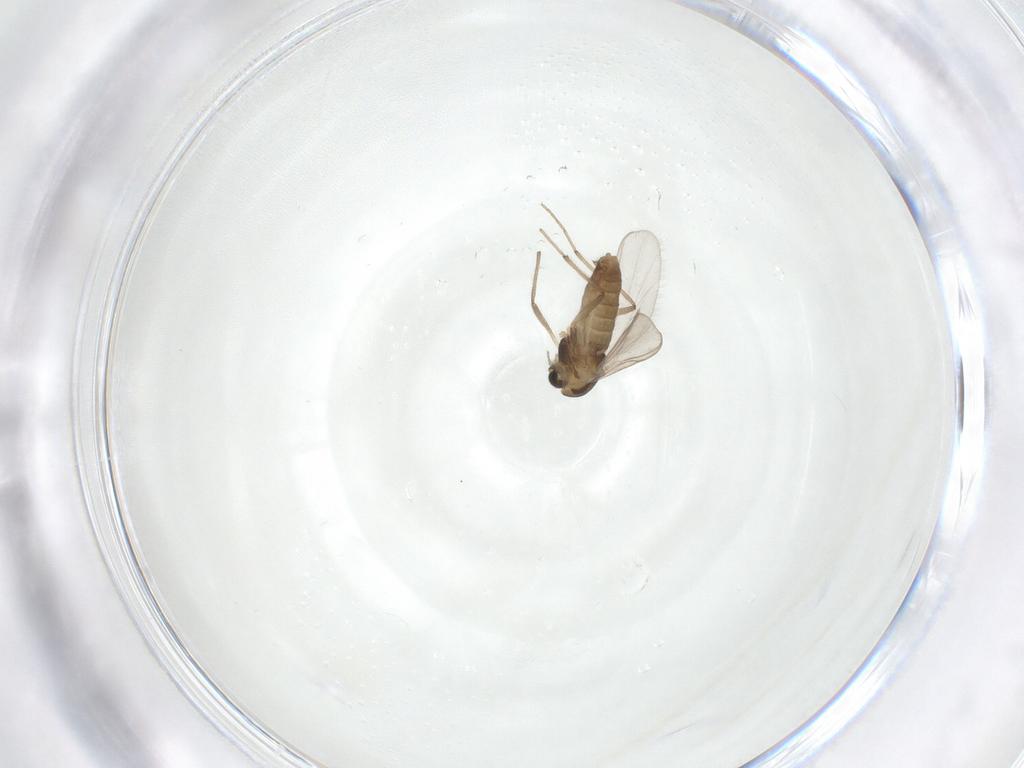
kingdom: Animalia
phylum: Arthropoda
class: Insecta
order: Diptera
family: Chironomidae
